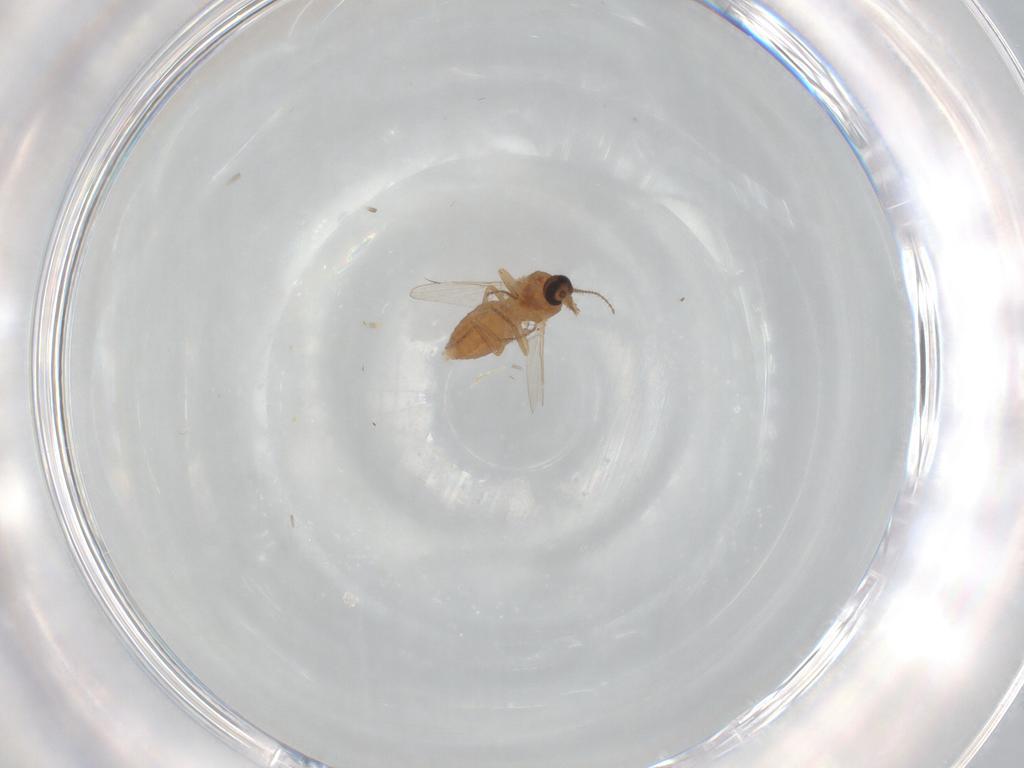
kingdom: Animalia
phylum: Arthropoda
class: Insecta
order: Diptera
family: Ceratopogonidae
